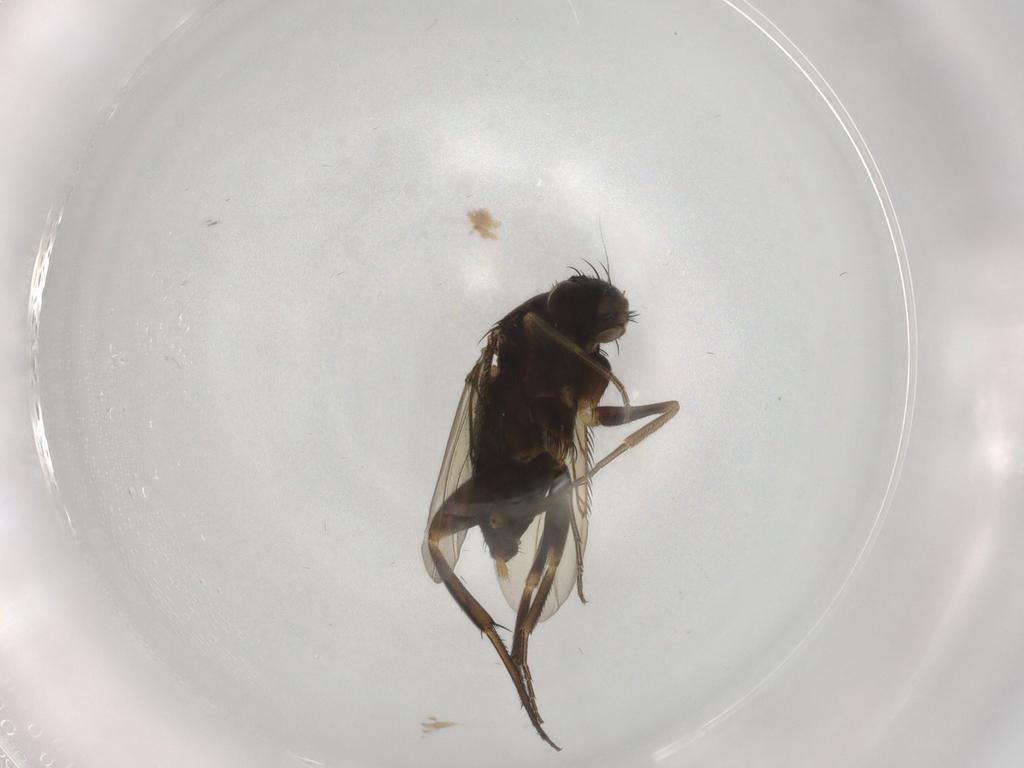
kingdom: Animalia
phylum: Arthropoda
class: Insecta
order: Diptera
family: Phoridae
